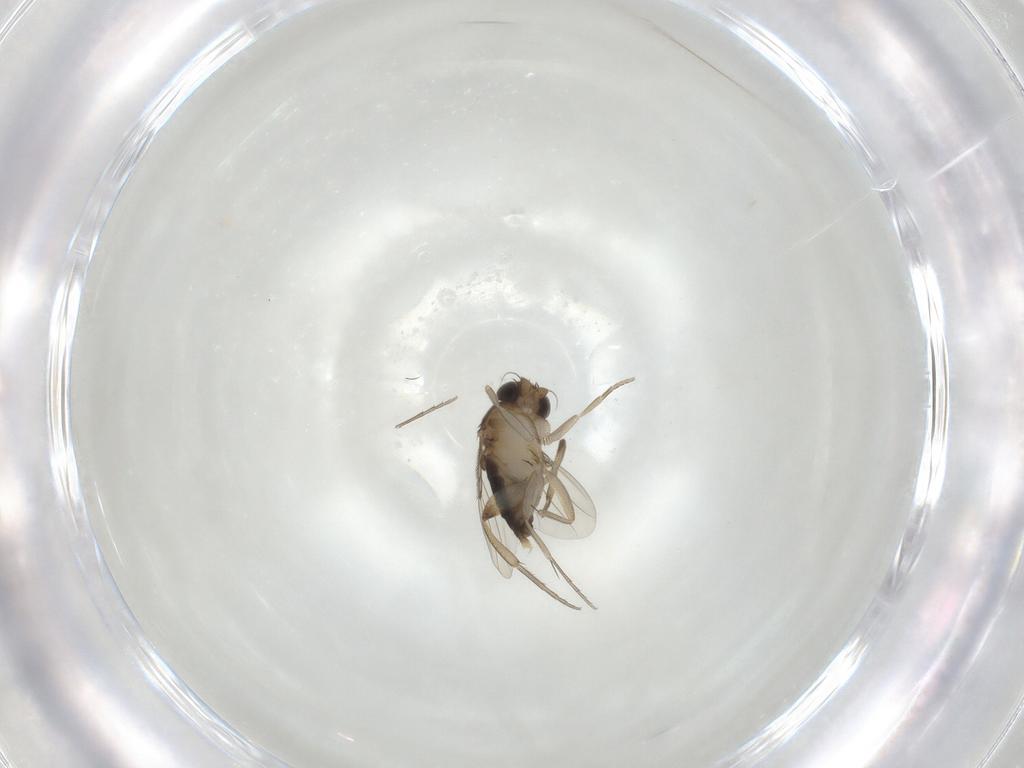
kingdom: Animalia
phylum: Arthropoda
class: Insecta
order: Diptera
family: Phoridae
